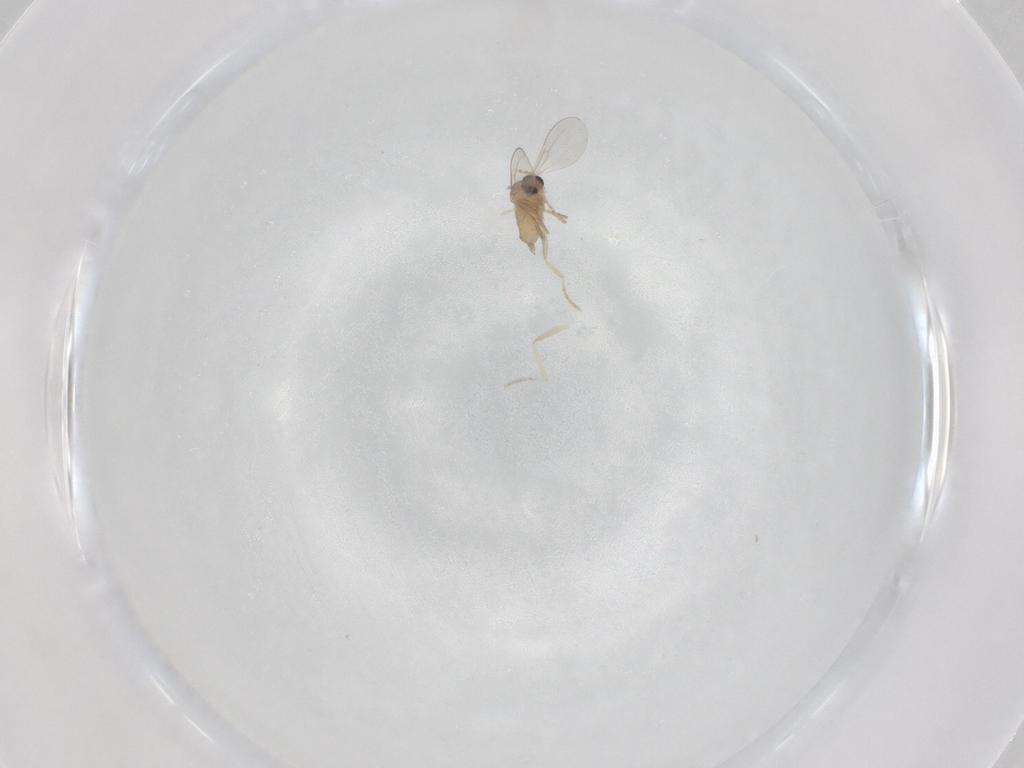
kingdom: Animalia
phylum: Arthropoda
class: Insecta
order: Diptera
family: Cecidomyiidae
